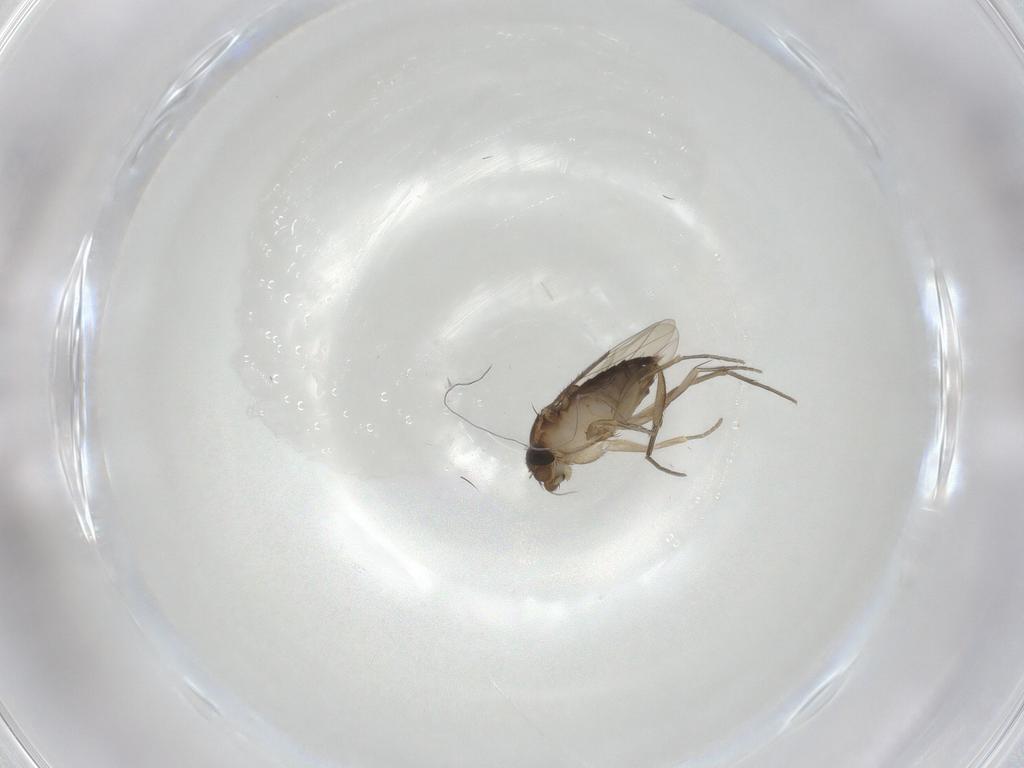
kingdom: Animalia
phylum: Arthropoda
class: Insecta
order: Diptera
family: Phoridae
